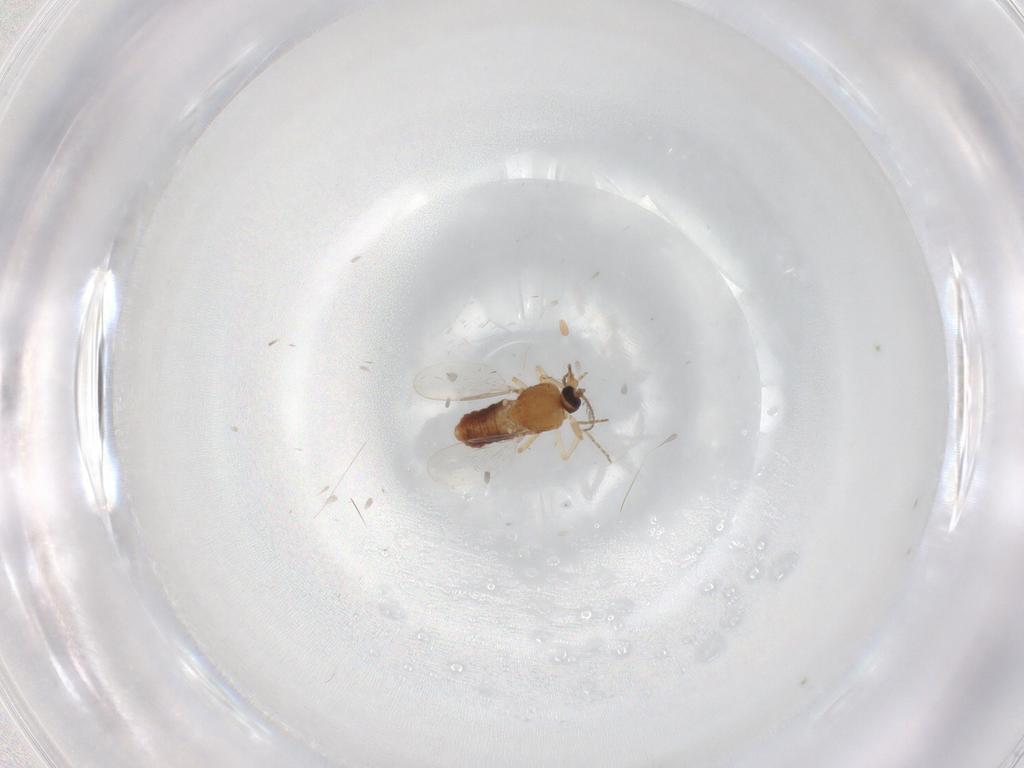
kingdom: Animalia
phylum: Arthropoda
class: Insecta
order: Diptera
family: Ceratopogonidae
